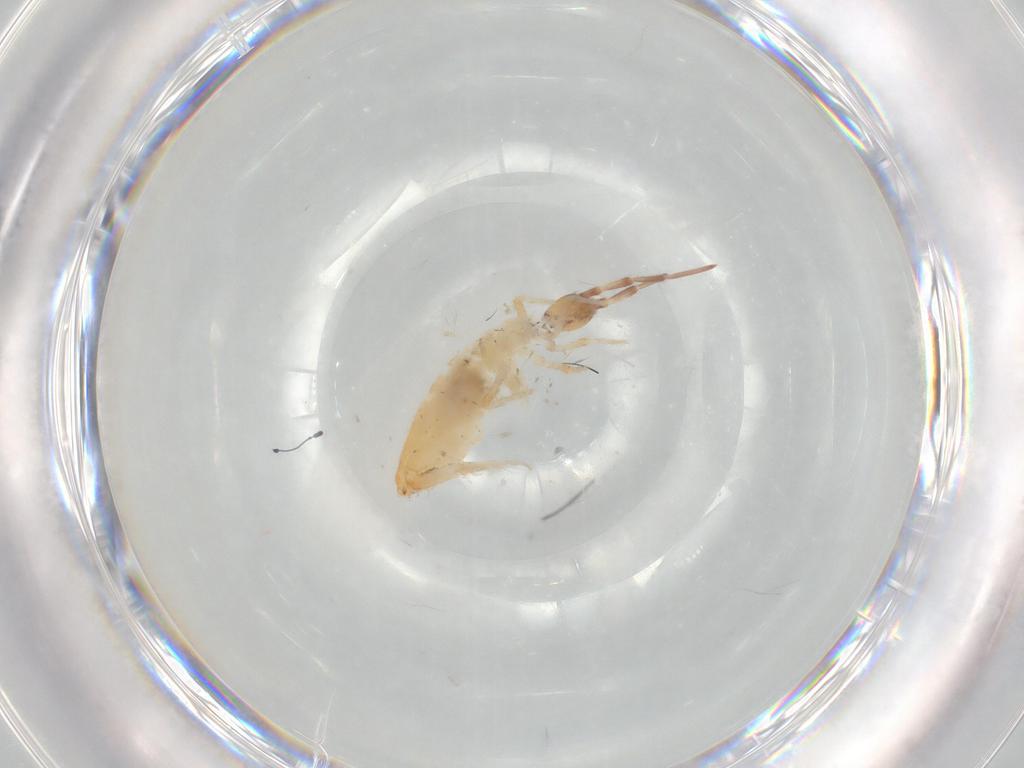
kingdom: Animalia
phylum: Arthropoda
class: Collembola
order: Entomobryomorpha
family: Entomobryidae
